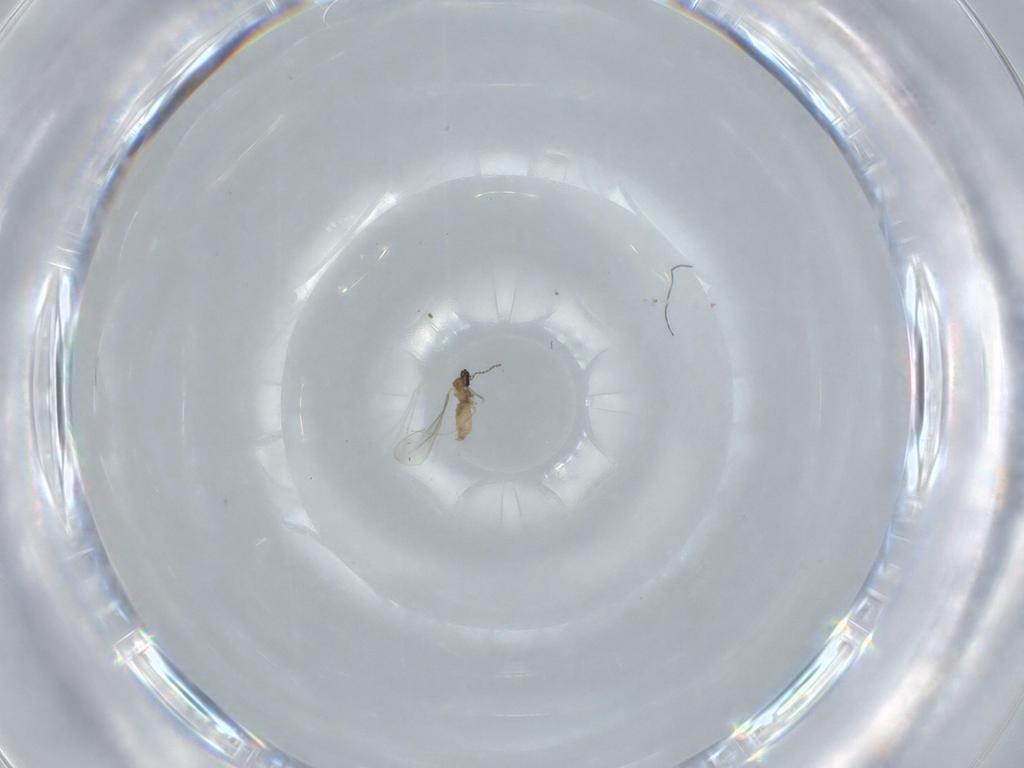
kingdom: Animalia
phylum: Arthropoda
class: Insecta
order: Diptera
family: Cecidomyiidae
